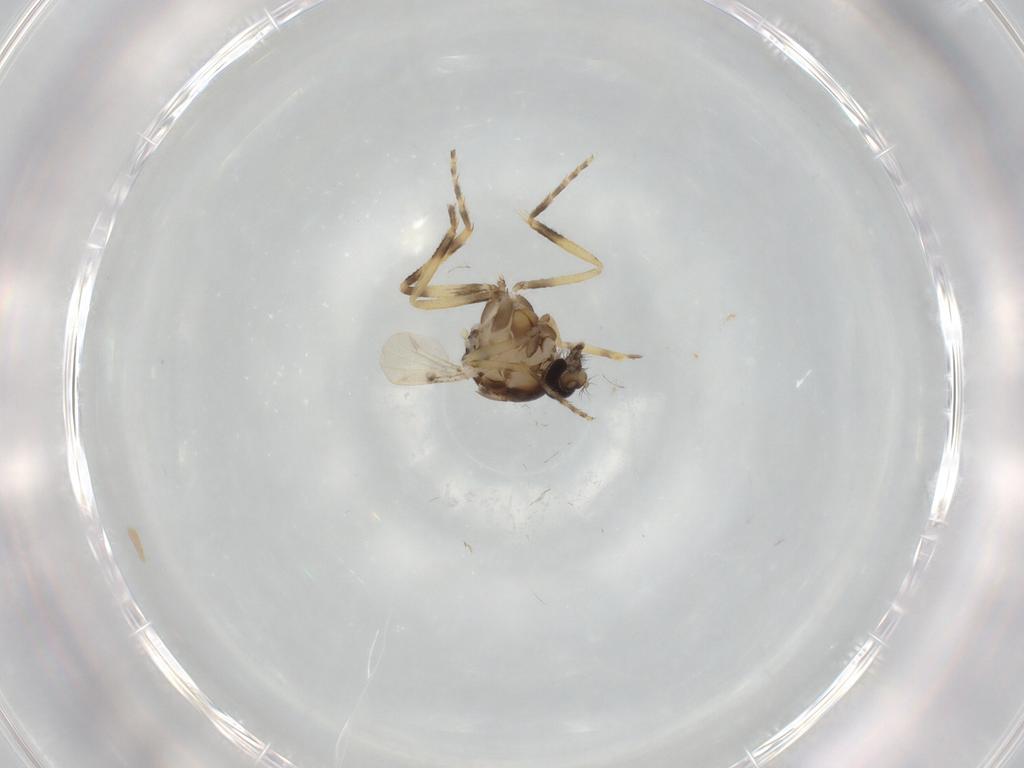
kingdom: Animalia
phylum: Arthropoda
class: Insecta
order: Diptera
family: Ceratopogonidae
